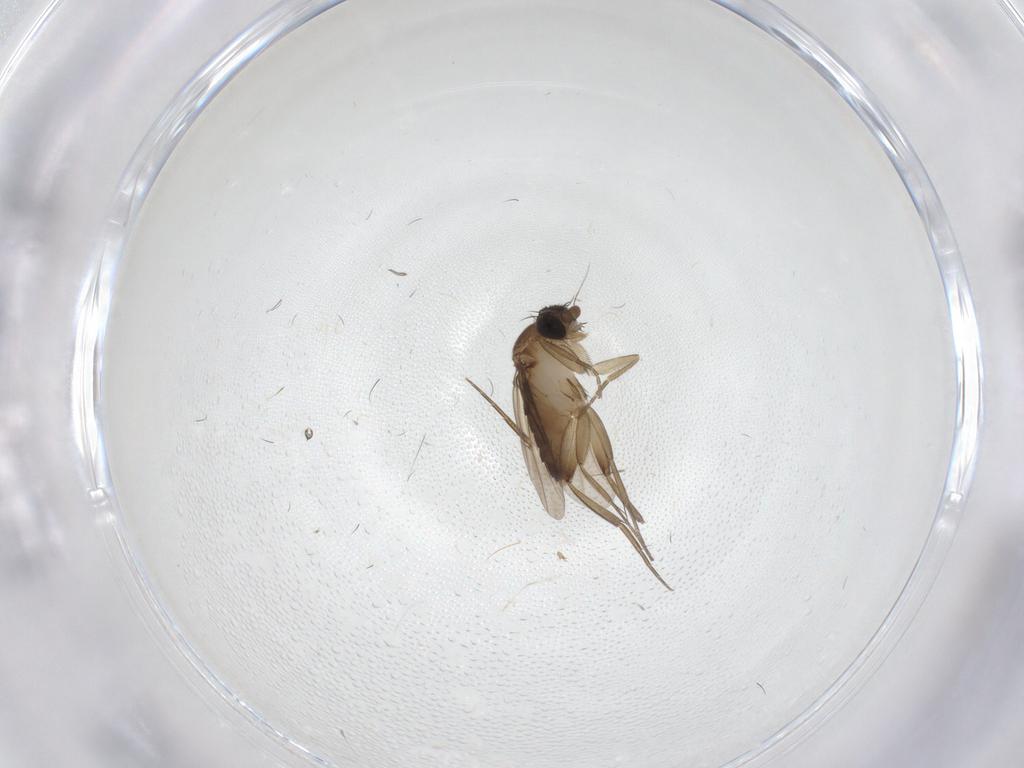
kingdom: Animalia
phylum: Arthropoda
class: Insecta
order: Diptera
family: Phoridae
